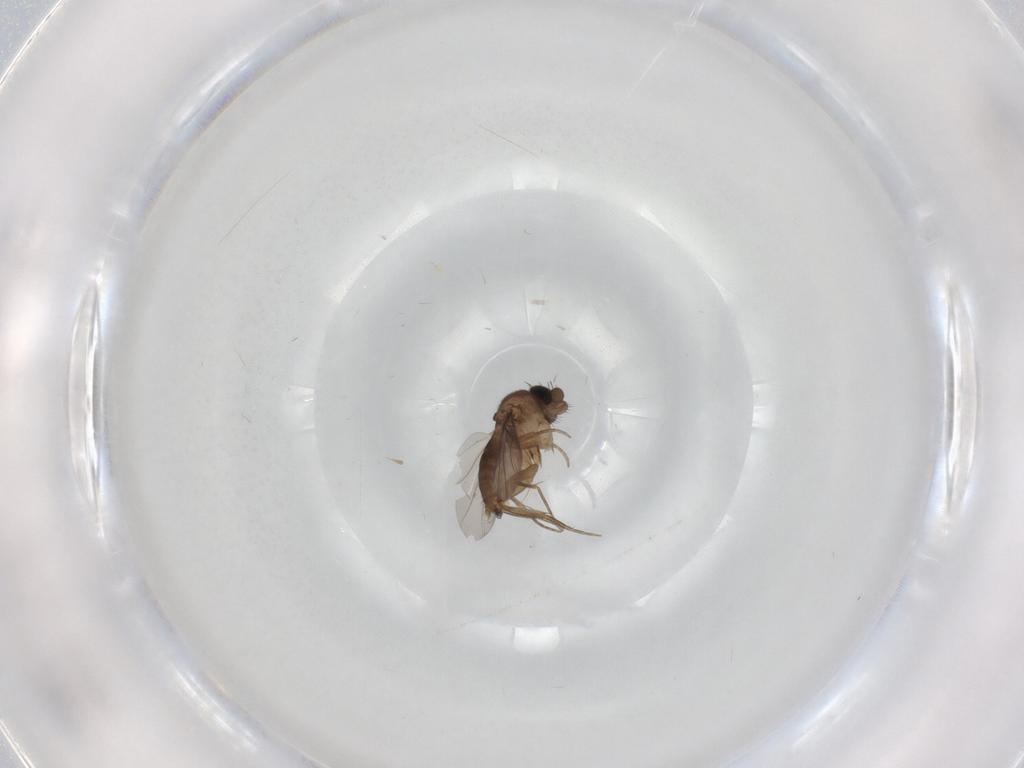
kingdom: Animalia
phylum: Arthropoda
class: Insecta
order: Diptera
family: Phoridae
